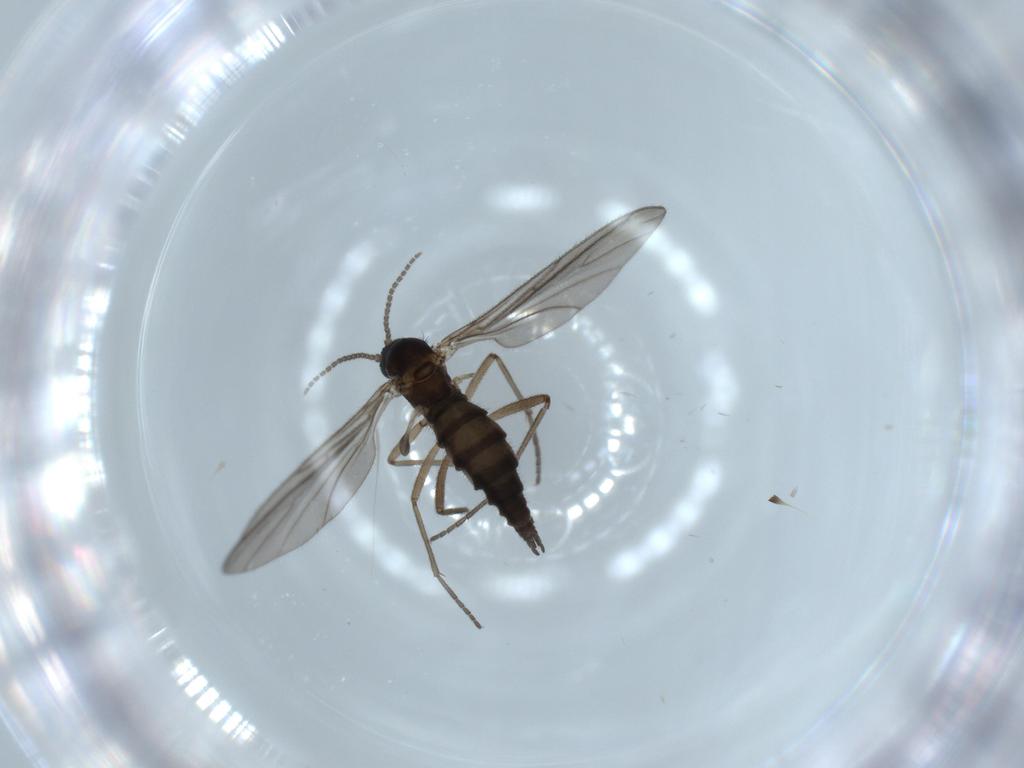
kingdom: Animalia
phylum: Arthropoda
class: Insecta
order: Diptera
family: Sciaridae
